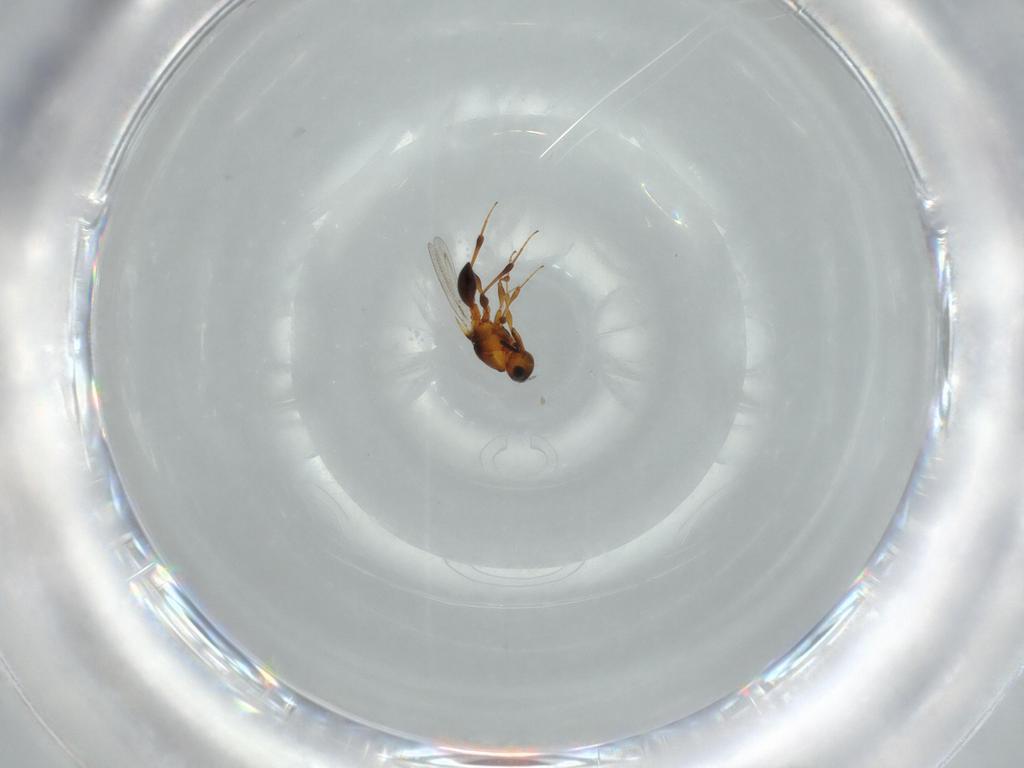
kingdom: Animalia
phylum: Arthropoda
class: Insecta
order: Hymenoptera
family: Platygastridae
